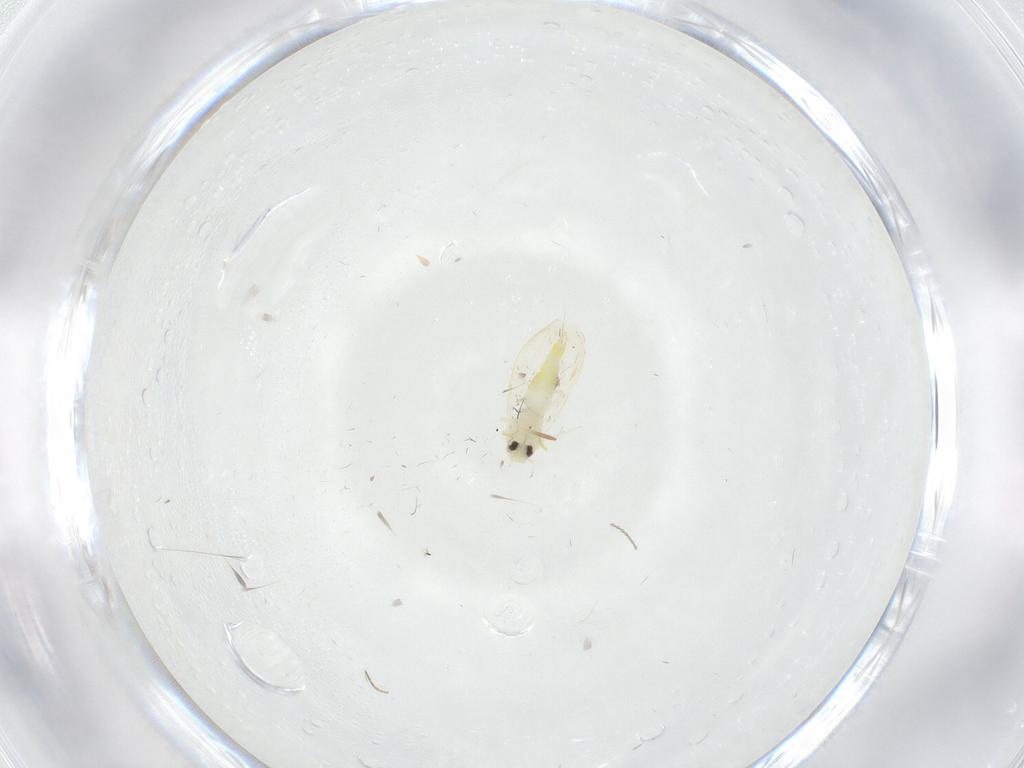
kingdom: Animalia
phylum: Arthropoda
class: Insecta
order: Hemiptera
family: Aleyrodidae
